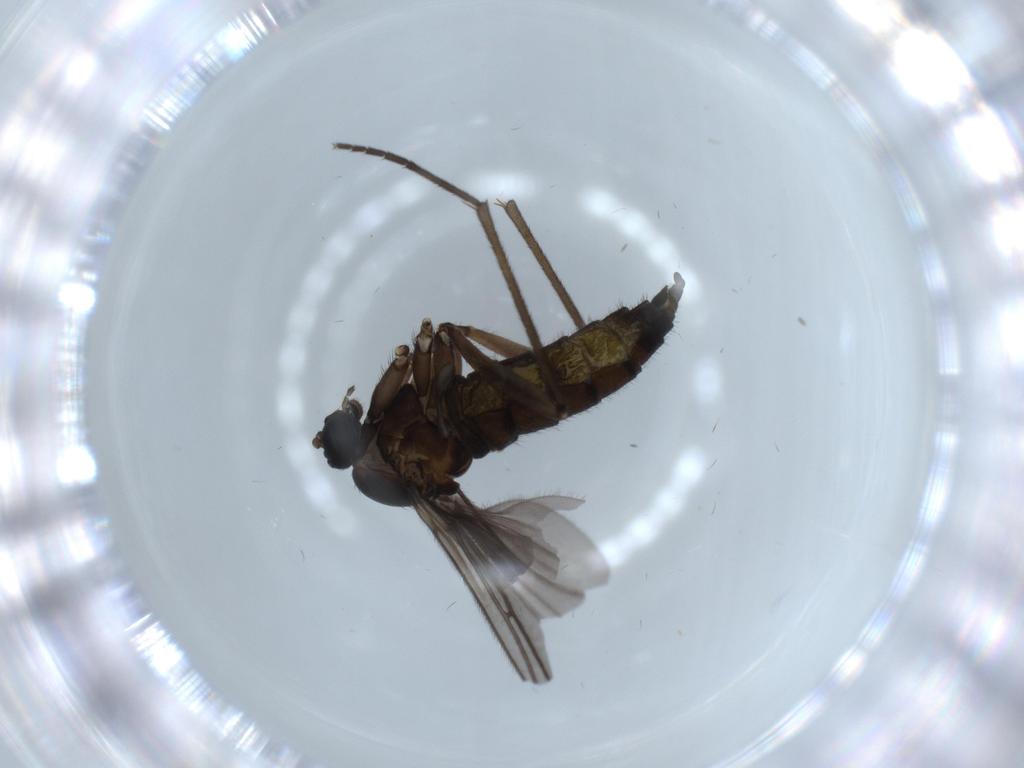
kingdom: Animalia
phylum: Arthropoda
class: Insecta
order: Diptera
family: Sciaridae
